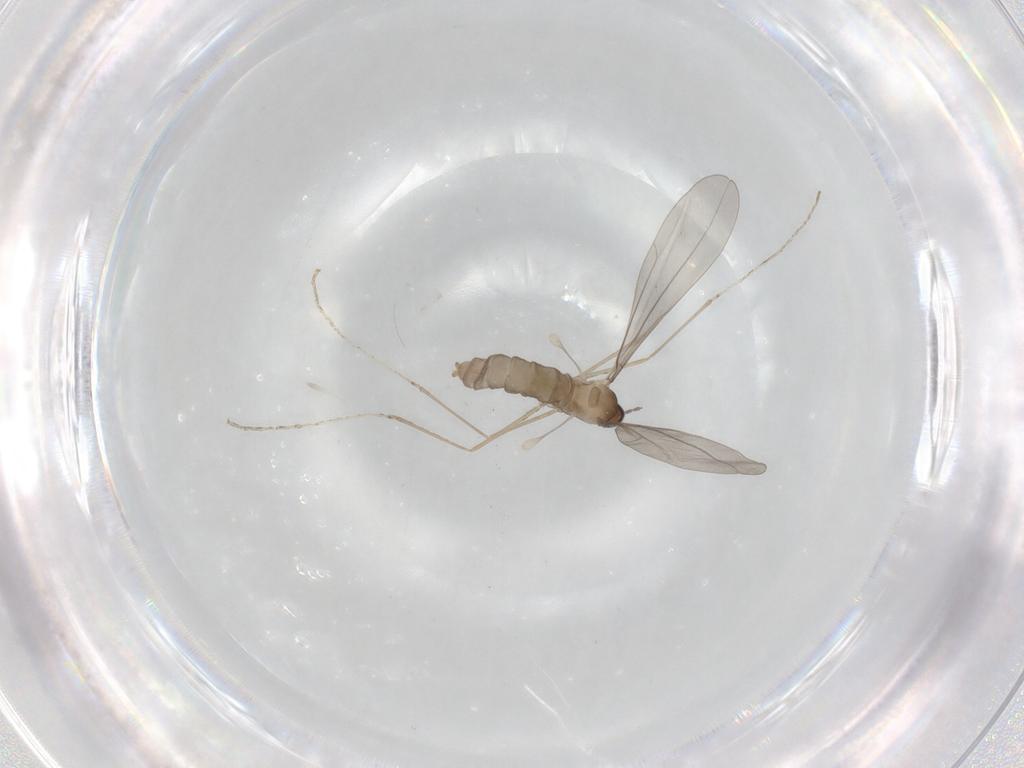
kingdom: Animalia
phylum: Arthropoda
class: Insecta
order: Diptera
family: Cecidomyiidae
